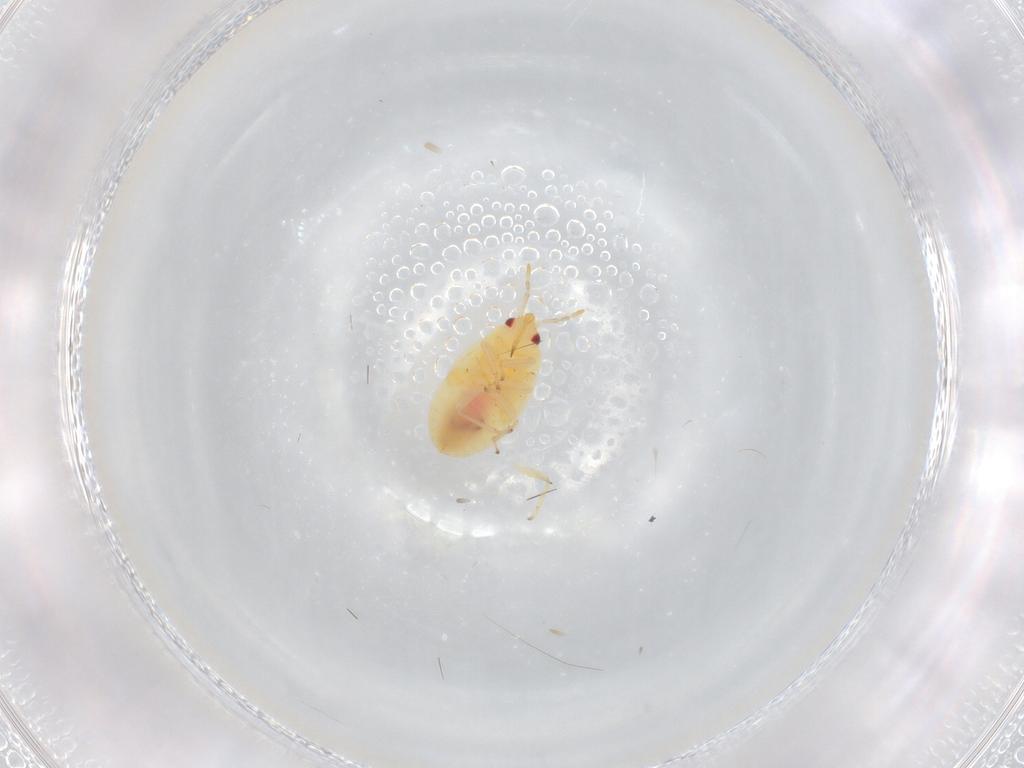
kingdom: Animalia
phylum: Arthropoda
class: Insecta
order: Hemiptera
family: Anthocoridae
